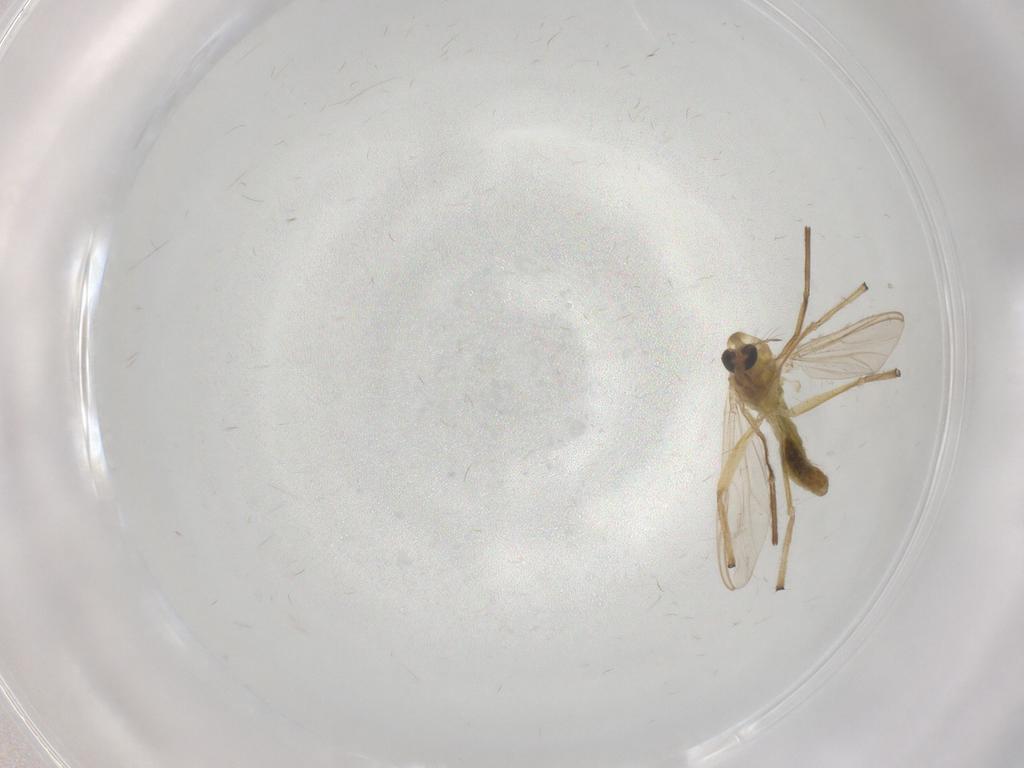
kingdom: Animalia
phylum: Arthropoda
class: Insecta
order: Diptera
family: Chironomidae
